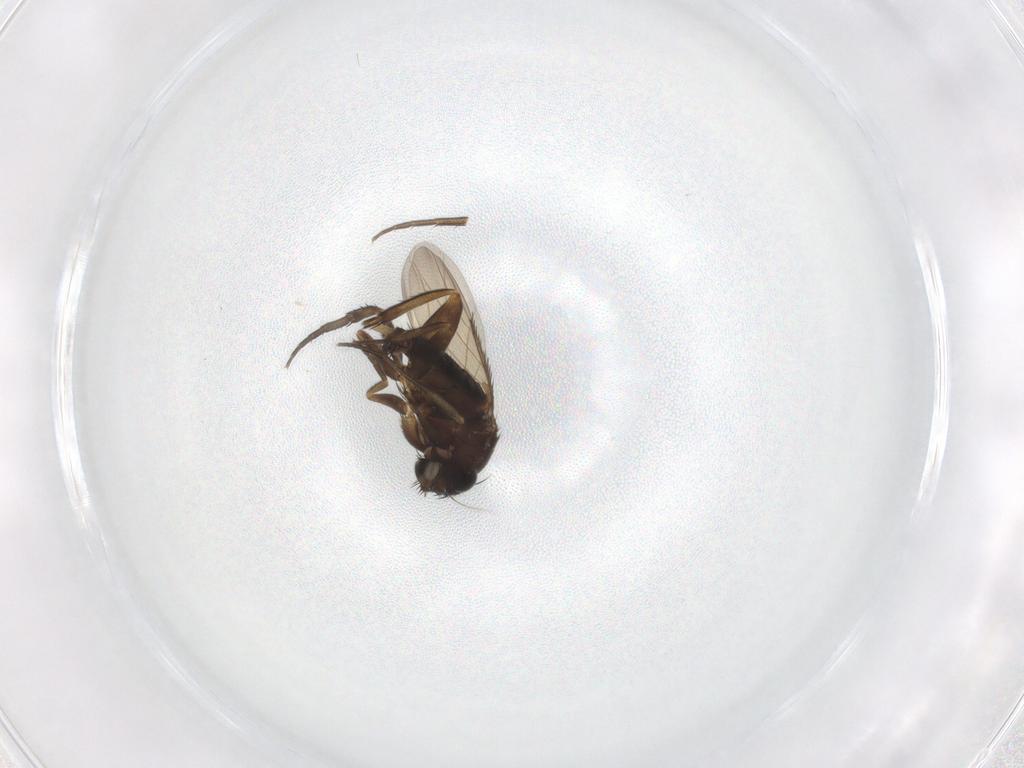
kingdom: Animalia
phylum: Arthropoda
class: Insecta
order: Diptera
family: Phoridae
